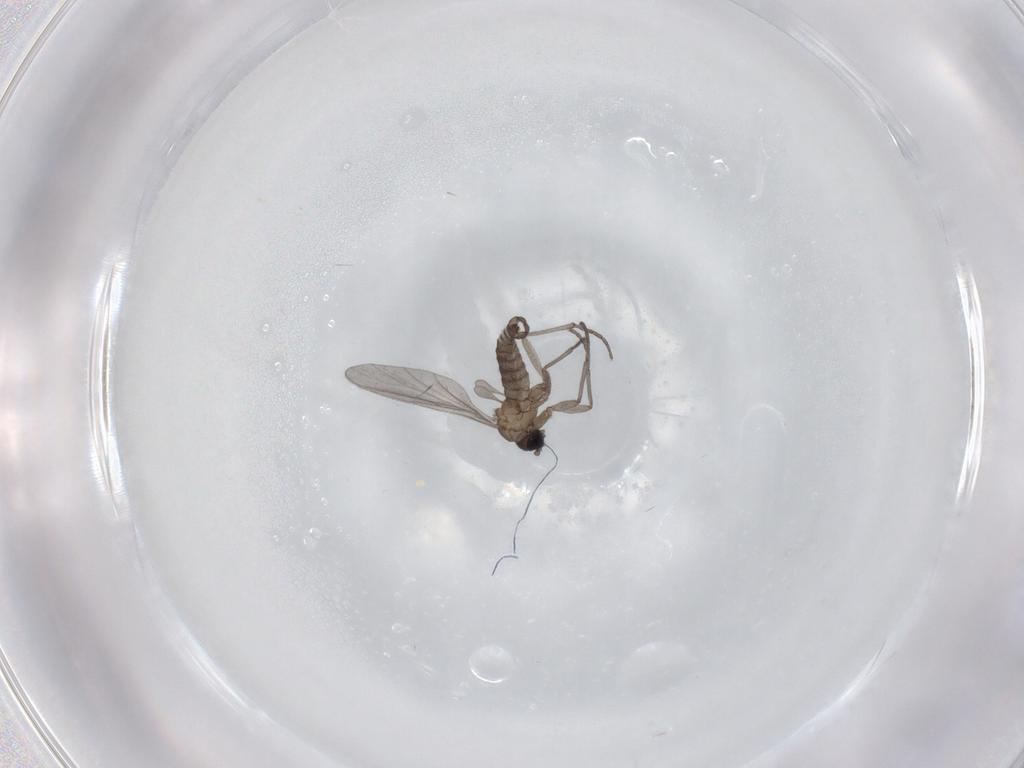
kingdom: Animalia
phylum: Arthropoda
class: Insecta
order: Diptera
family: Sciaridae
